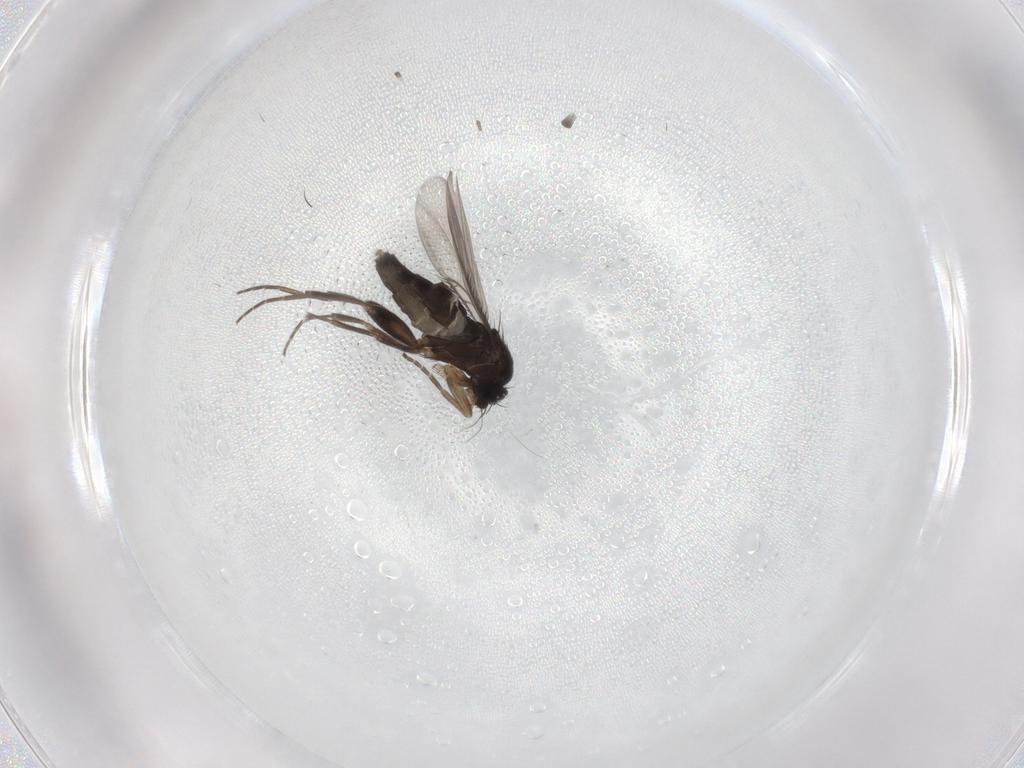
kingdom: Animalia
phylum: Arthropoda
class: Insecta
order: Diptera
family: Phoridae
